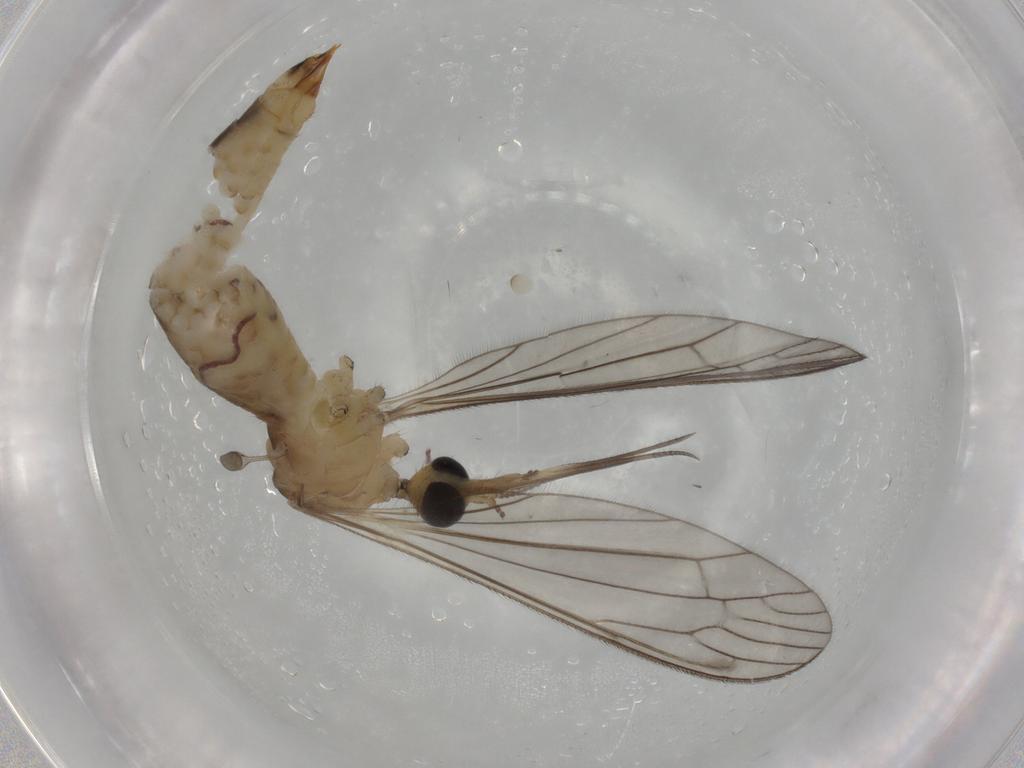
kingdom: Animalia
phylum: Arthropoda
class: Insecta
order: Diptera
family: Limoniidae
